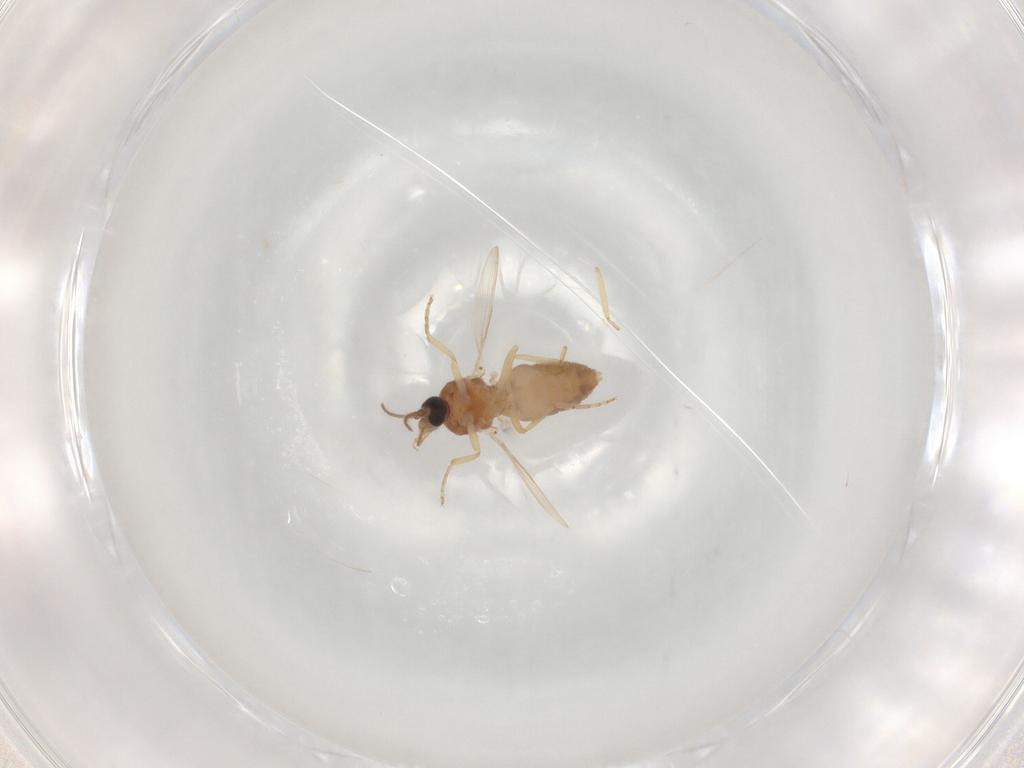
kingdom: Animalia
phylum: Arthropoda
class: Insecta
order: Diptera
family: Ceratopogonidae
